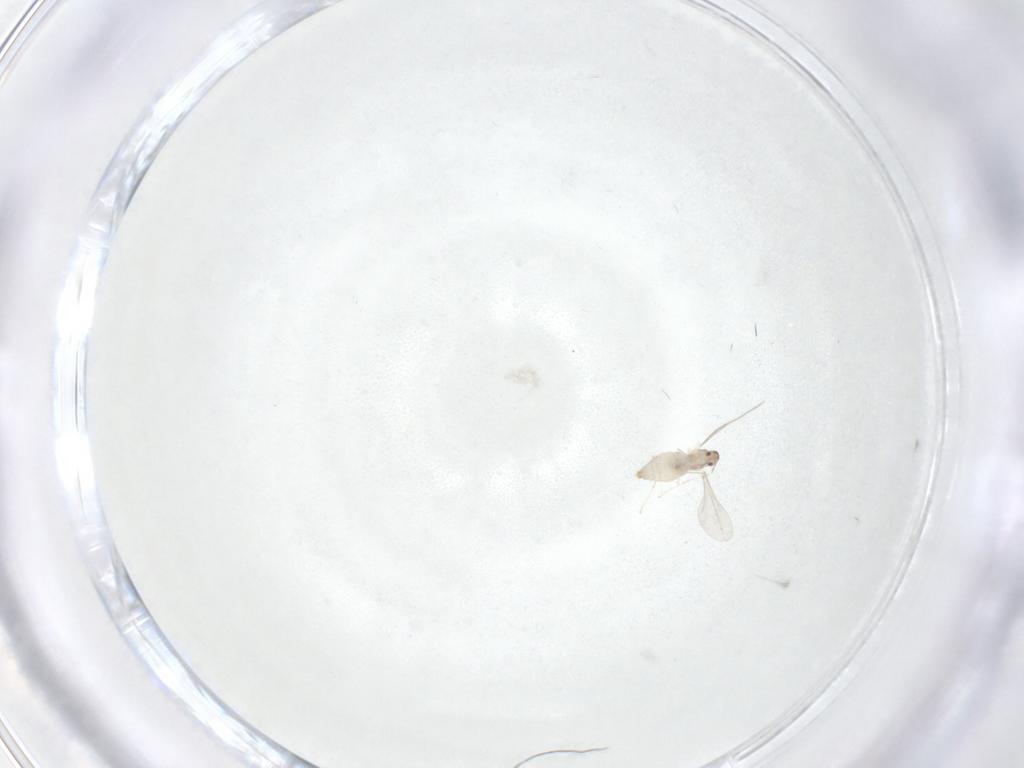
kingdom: Animalia
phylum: Arthropoda
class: Insecta
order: Diptera
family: Cecidomyiidae
